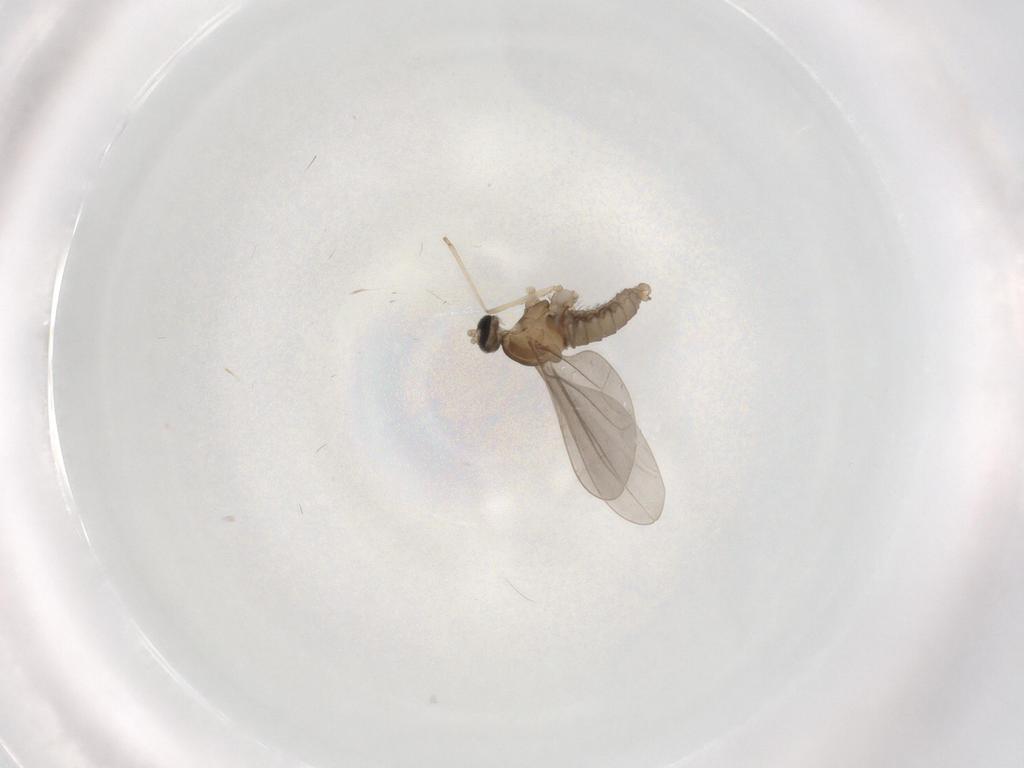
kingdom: Animalia
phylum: Arthropoda
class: Insecta
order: Diptera
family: Cecidomyiidae
